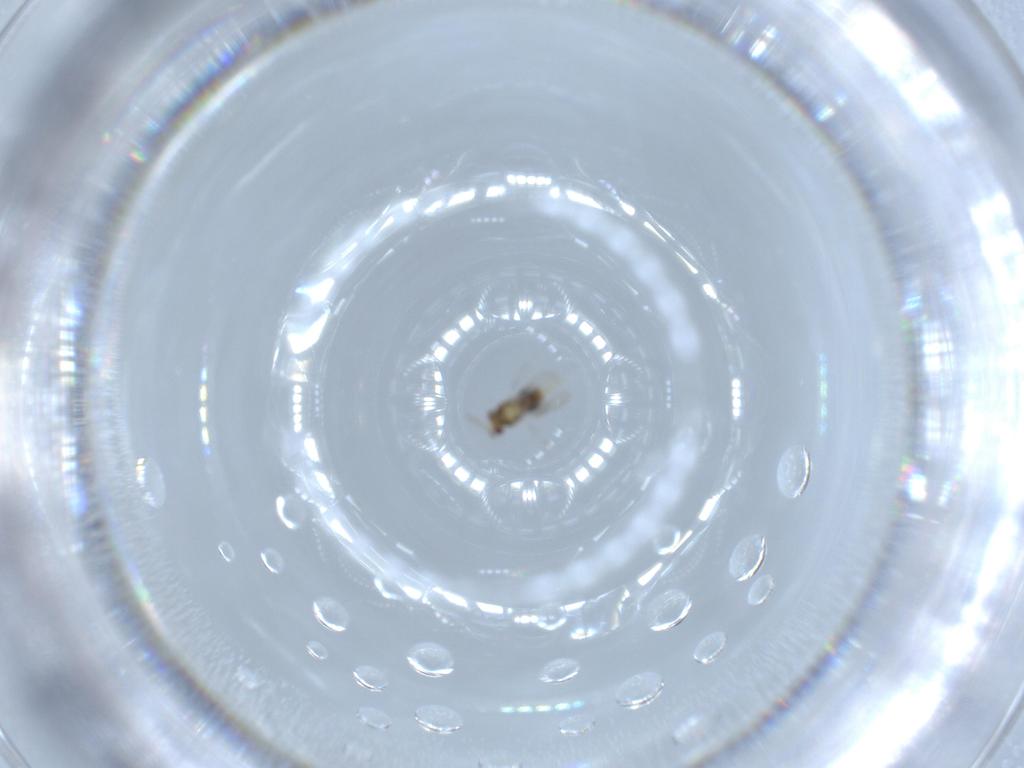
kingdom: Animalia
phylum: Arthropoda
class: Insecta
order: Hymenoptera
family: Aphelinidae
